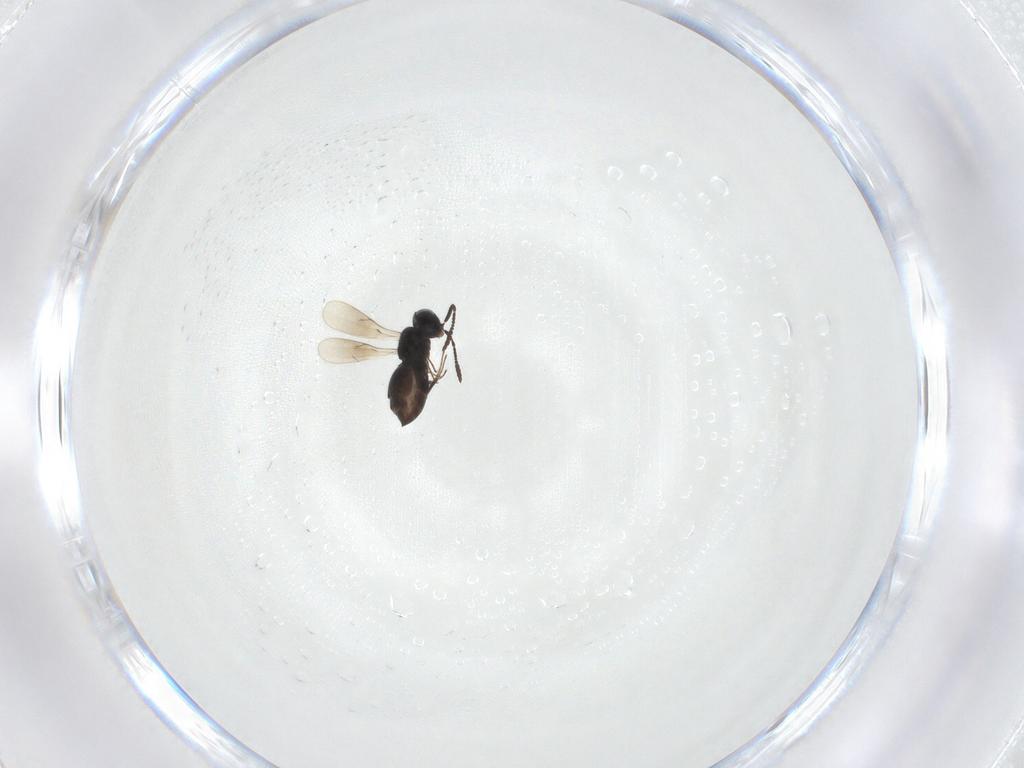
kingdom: Animalia
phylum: Arthropoda
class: Insecta
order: Hymenoptera
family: Scelionidae
